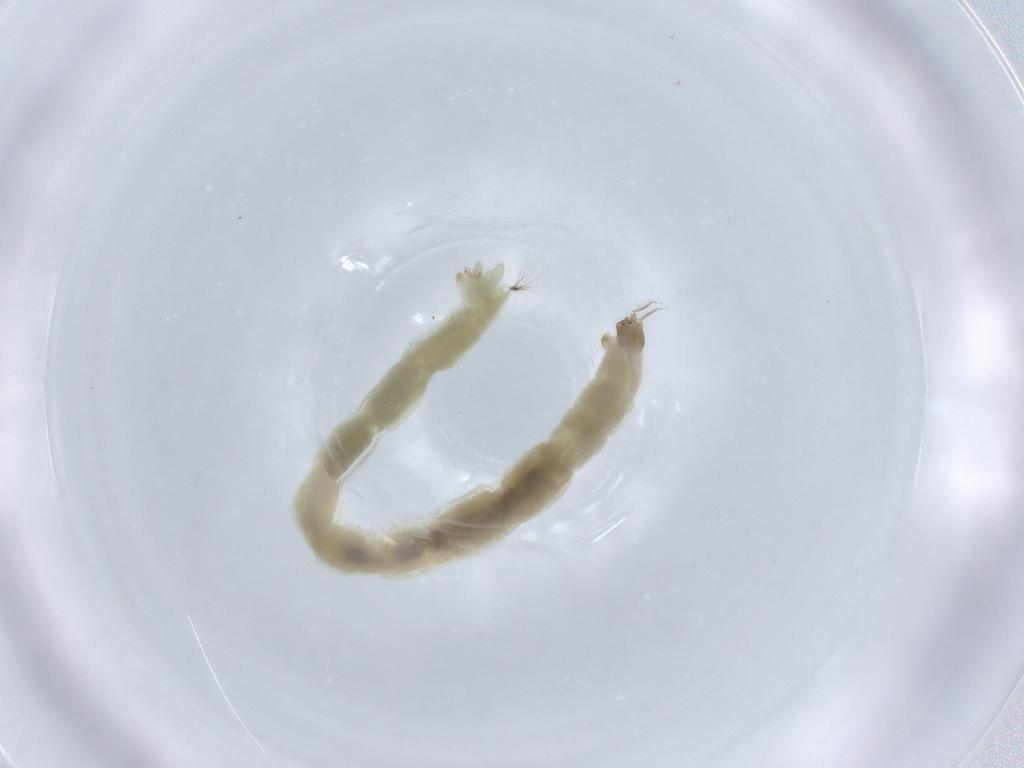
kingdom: Animalia
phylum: Arthropoda
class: Insecta
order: Diptera
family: Chironomidae
